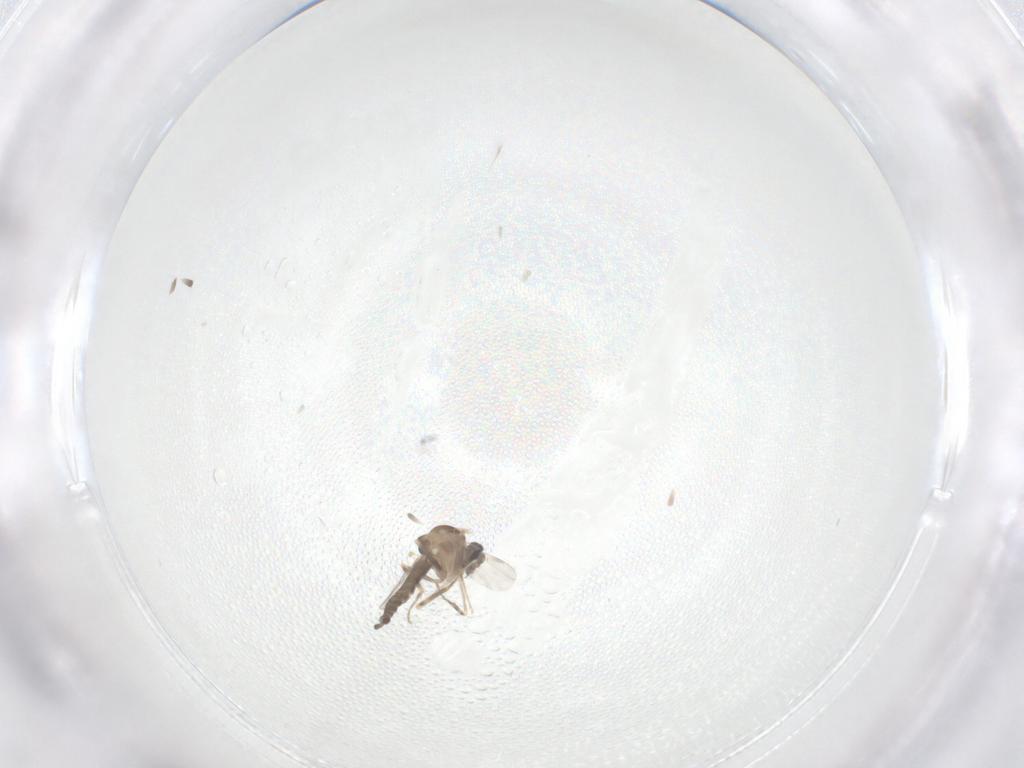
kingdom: Animalia
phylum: Arthropoda
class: Insecta
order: Diptera
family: Ceratopogonidae
